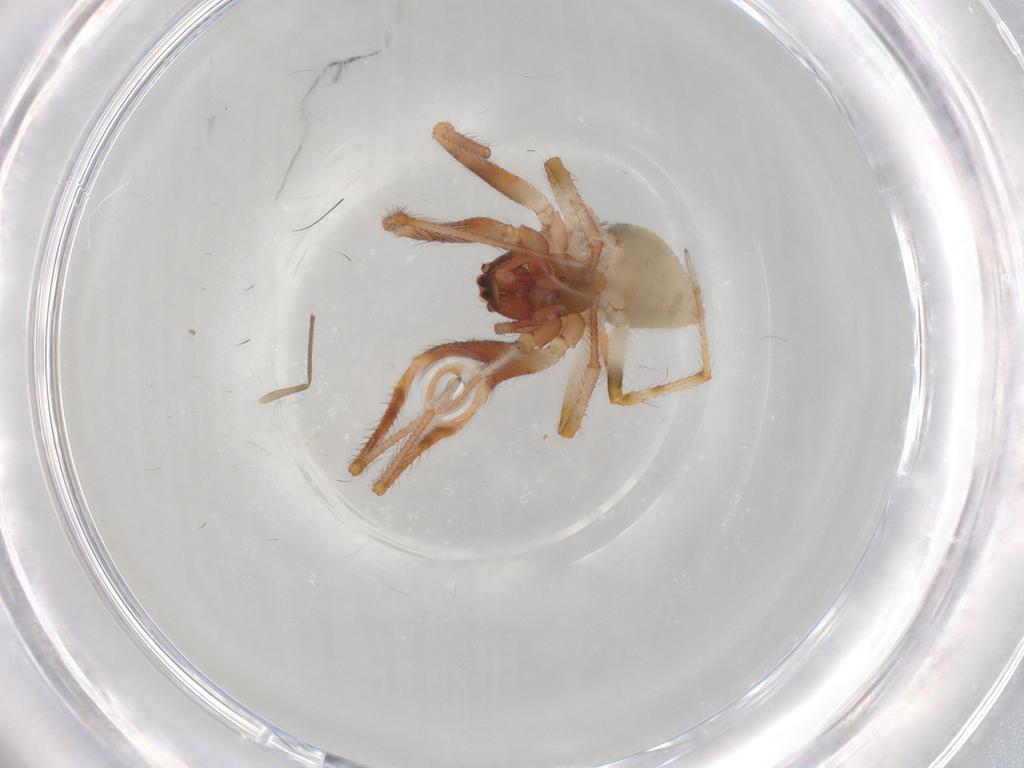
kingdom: Animalia
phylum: Arthropoda
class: Arachnida
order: Araneae
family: Theridiidae
